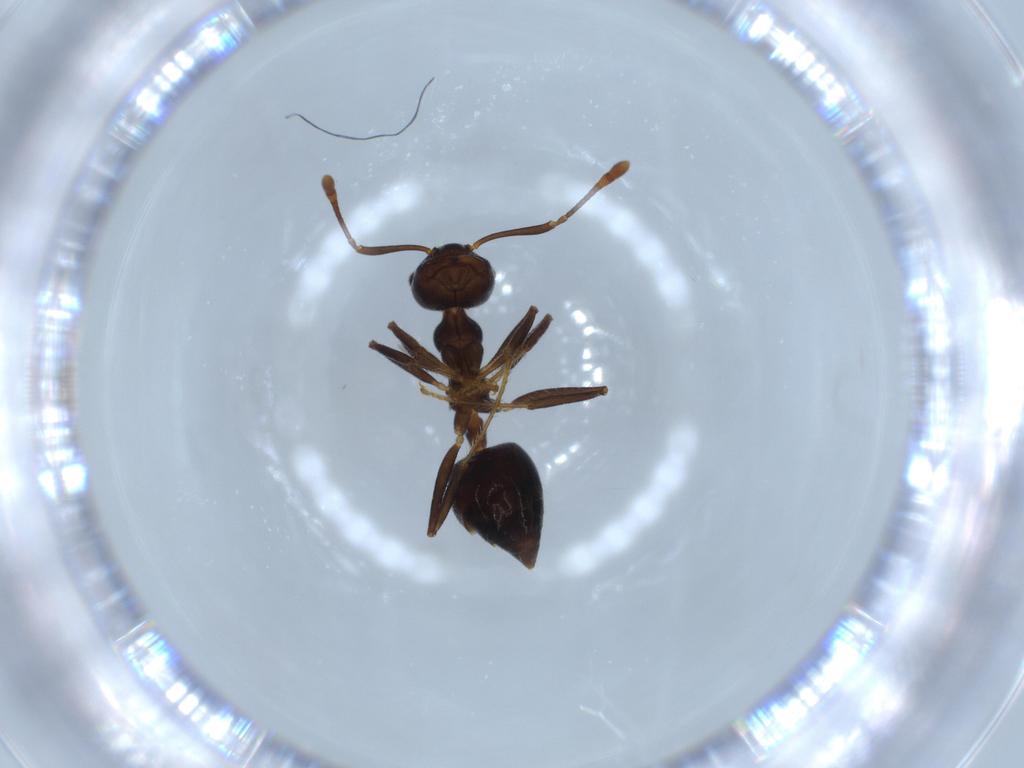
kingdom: Animalia
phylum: Arthropoda
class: Insecta
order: Hymenoptera
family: Formicidae
